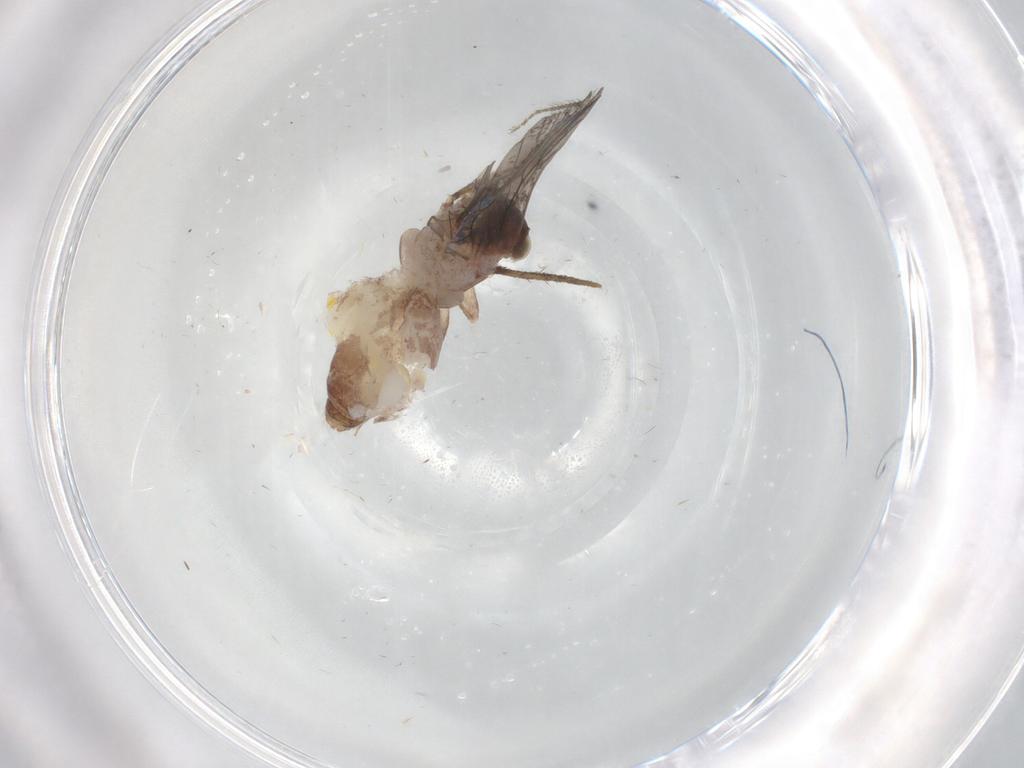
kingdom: Animalia
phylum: Arthropoda
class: Insecta
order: Psocodea
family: Lepidopsocidae
